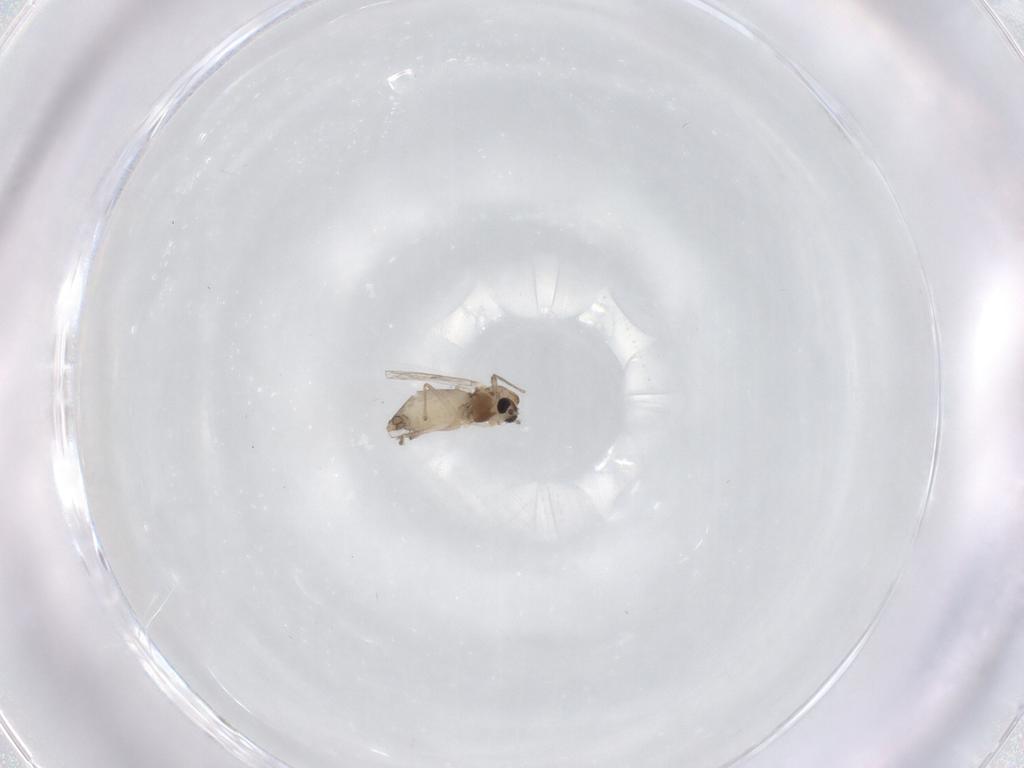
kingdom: Animalia
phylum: Arthropoda
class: Insecta
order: Diptera
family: Chironomidae
